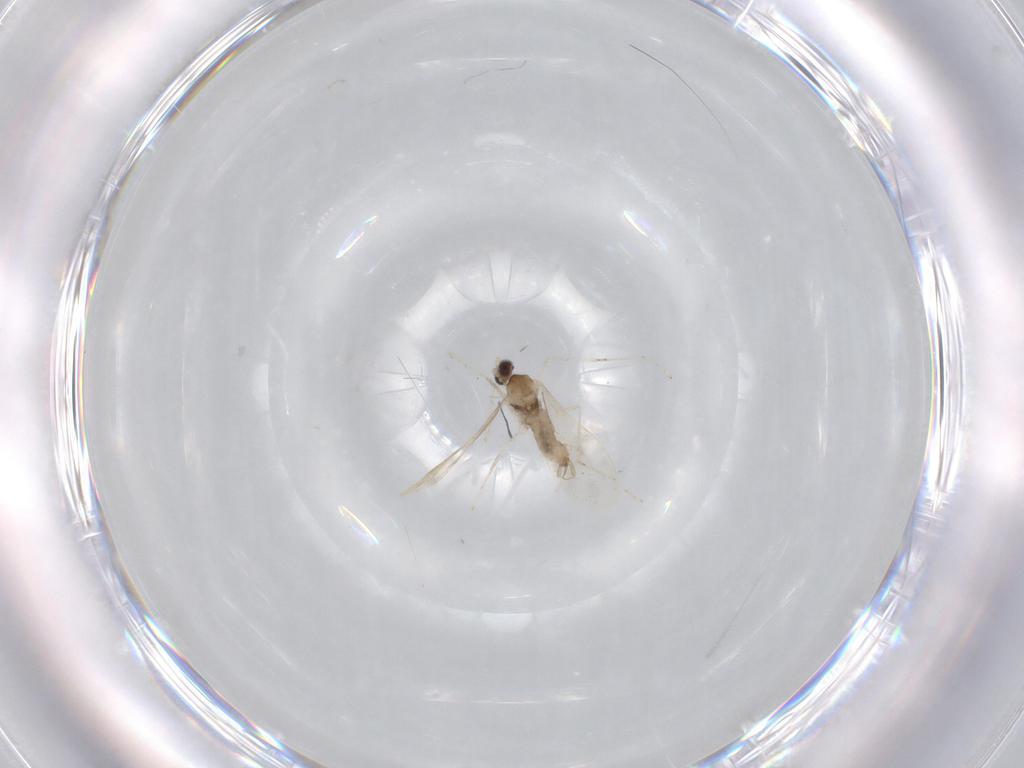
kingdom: Animalia
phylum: Arthropoda
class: Insecta
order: Diptera
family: Cecidomyiidae
